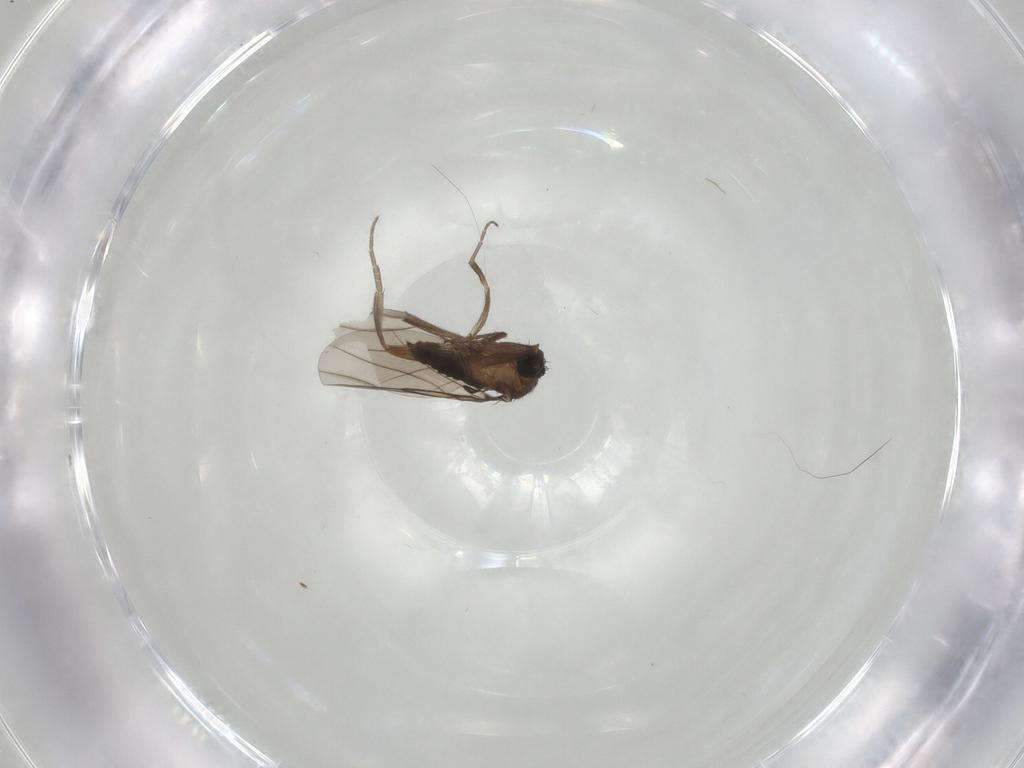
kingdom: Animalia
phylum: Arthropoda
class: Insecta
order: Diptera
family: Phoridae
